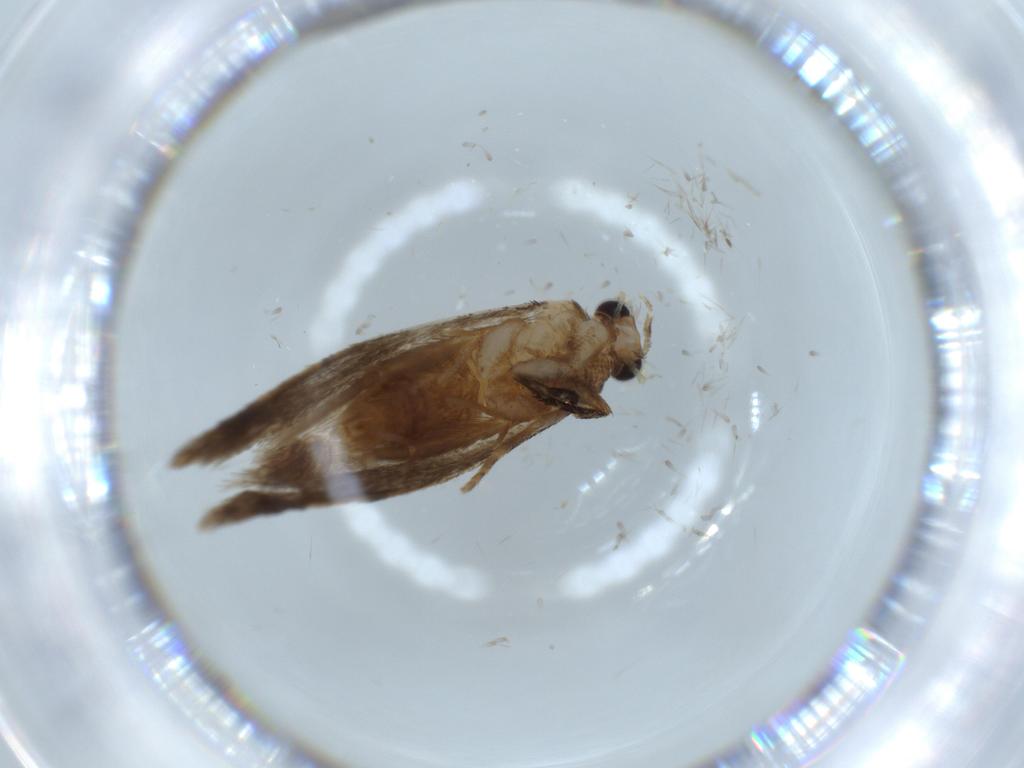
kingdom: Animalia
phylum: Arthropoda
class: Insecta
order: Lepidoptera
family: Tineidae
